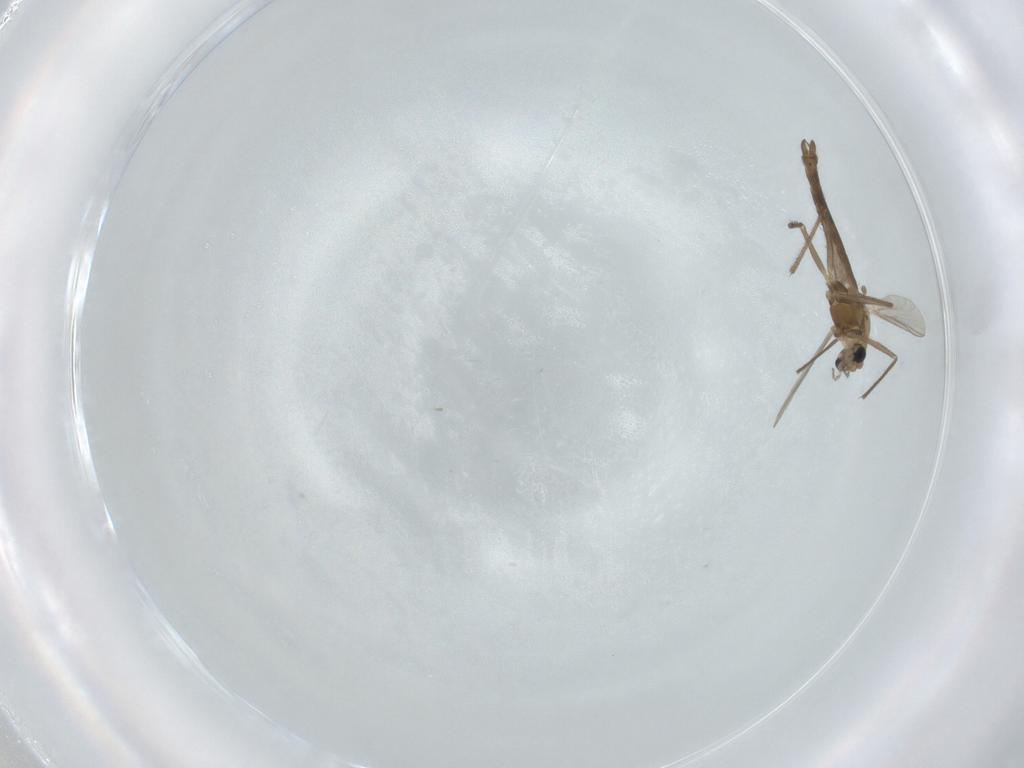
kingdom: Animalia
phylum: Arthropoda
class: Insecta
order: Diptera
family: Chironomidae
